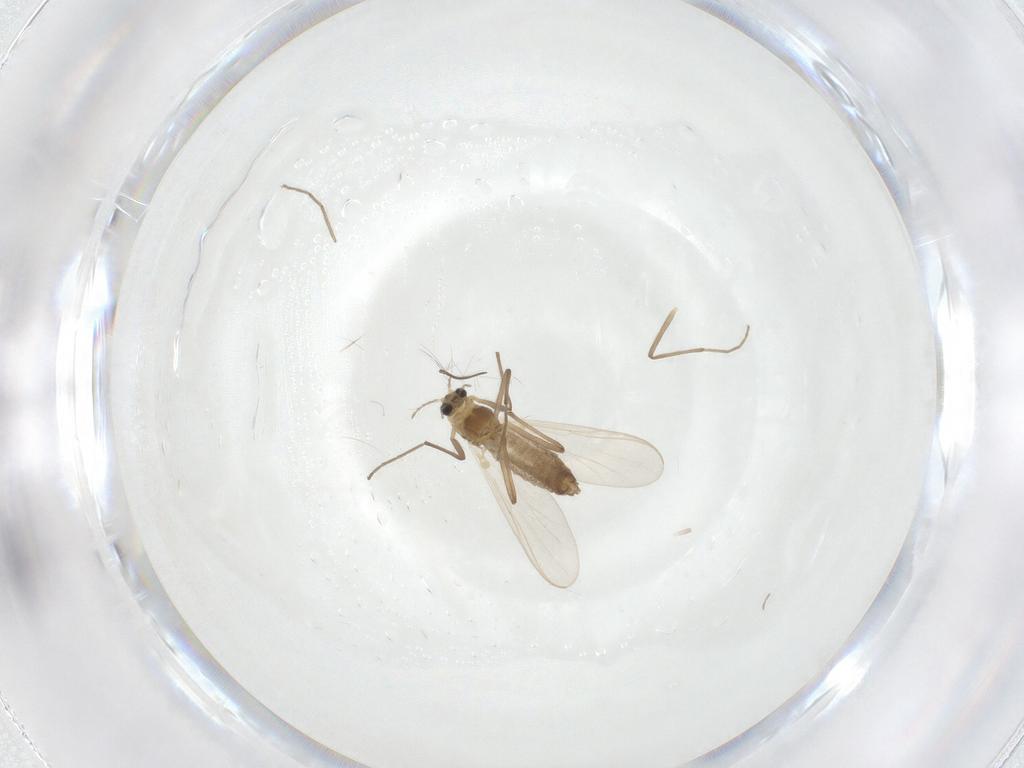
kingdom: Animalia
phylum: Arthropoda
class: Insecta
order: Diptera
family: Chironomidae
